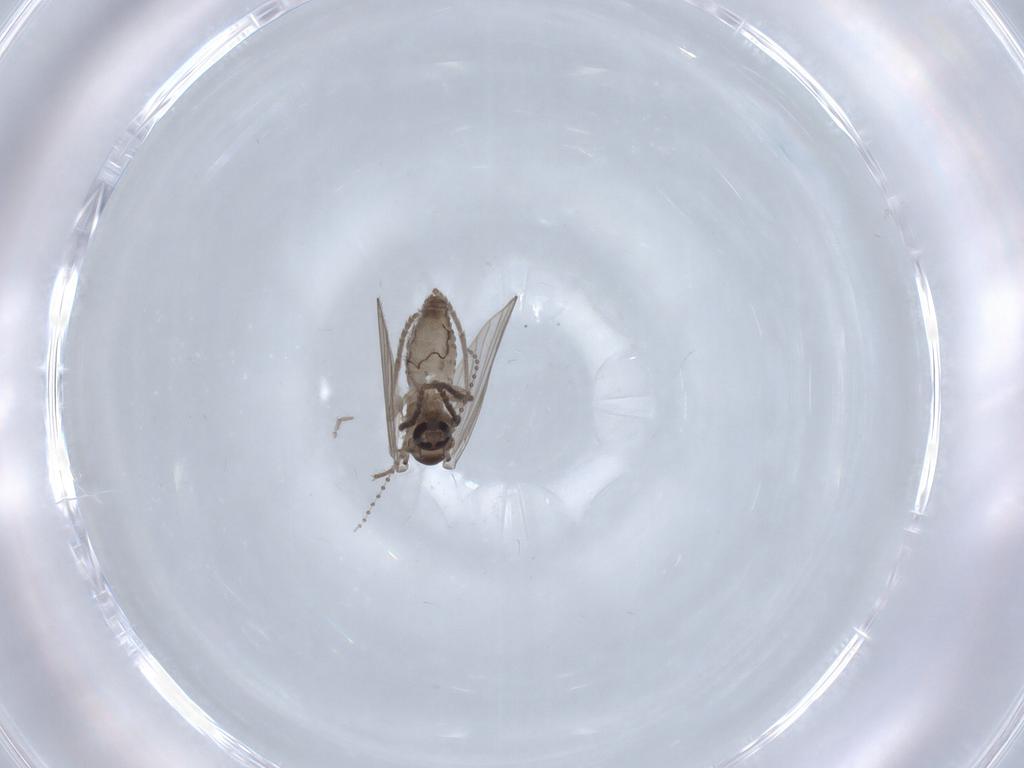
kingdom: Animalia
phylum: Arthropoda
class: Insecta
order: Diptera
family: Psychodidae
